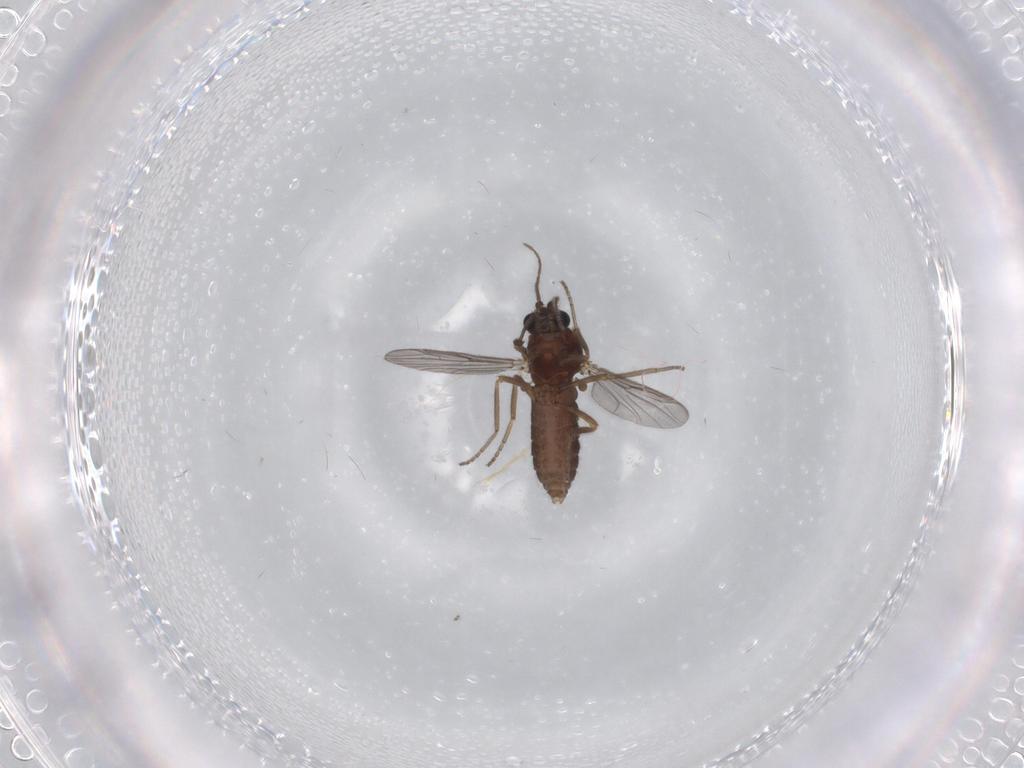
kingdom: Animalia
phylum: Arthropoda
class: Insecta
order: Diptera
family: Ceratopogonidae
